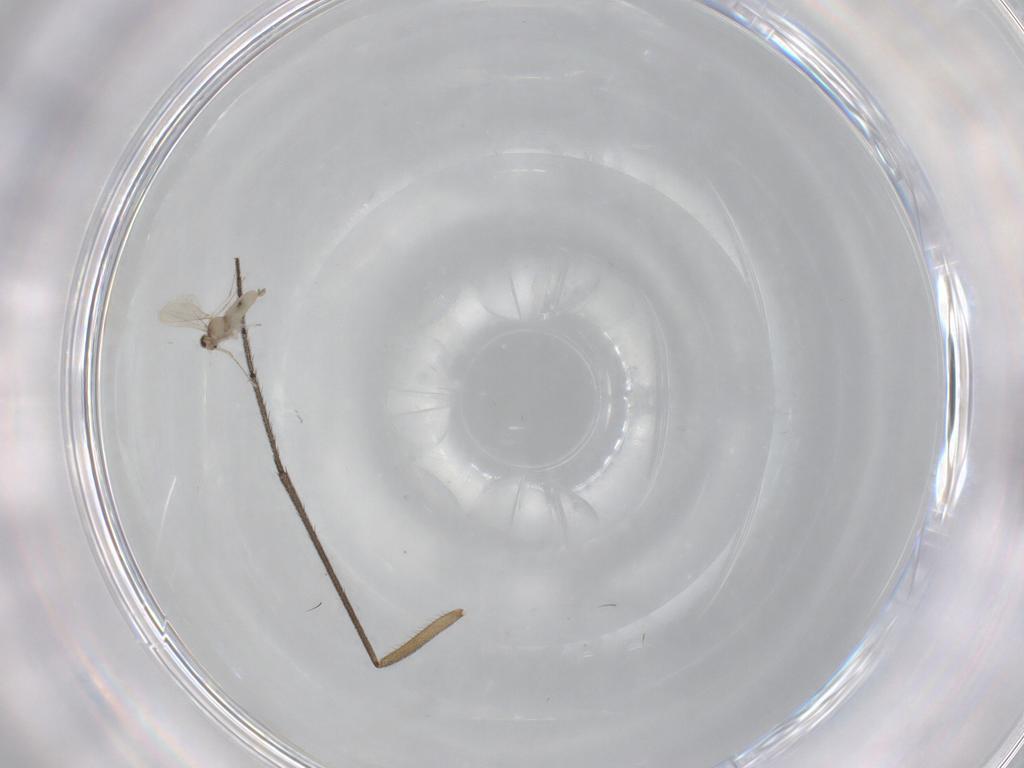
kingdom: Animalia
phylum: Arthropoda
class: Insecta
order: Diptera
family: Ditomyiidae
